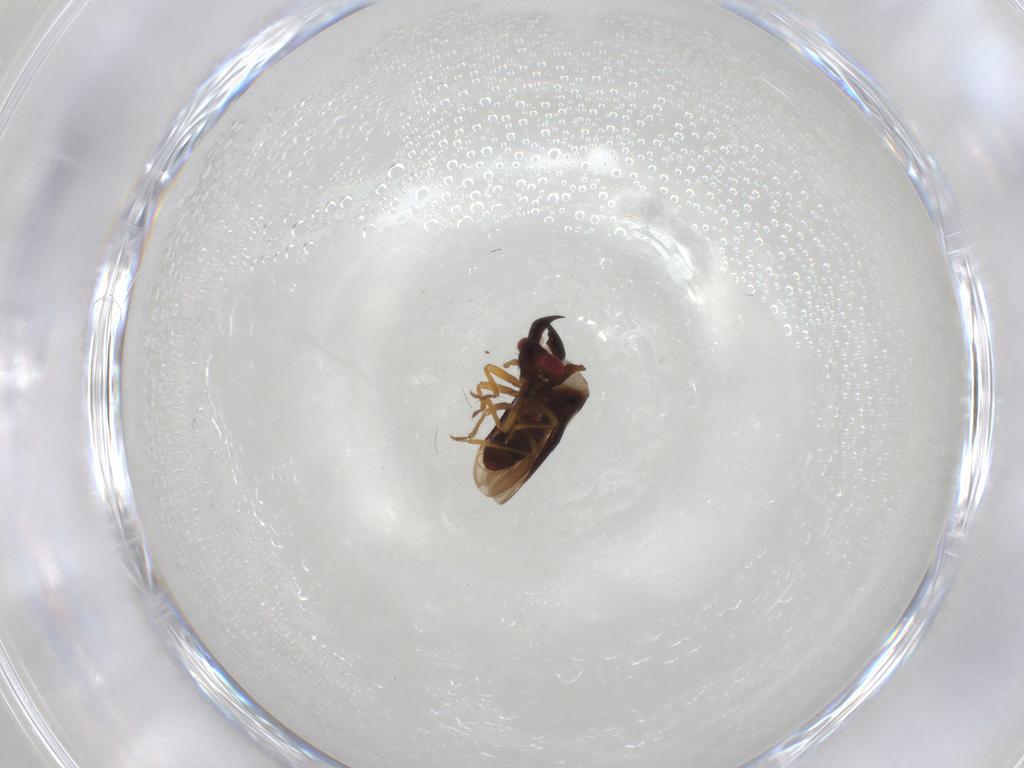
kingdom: Animalia
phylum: Arthropoda
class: Insecta
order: Hemiptera
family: Schizopteridae
